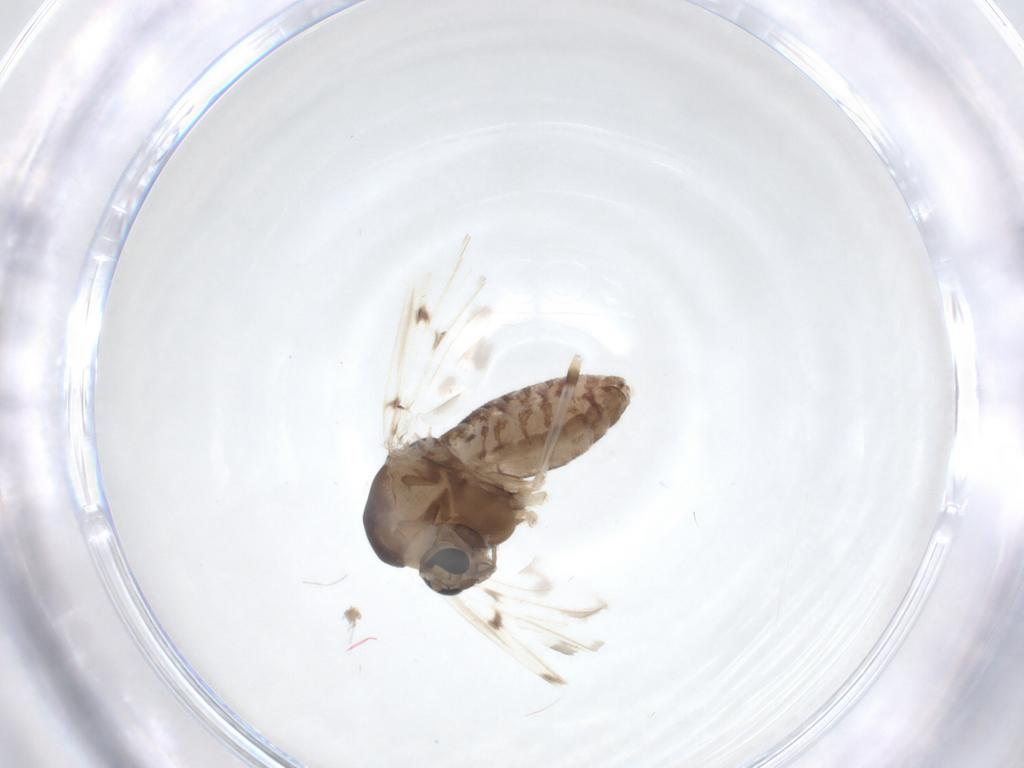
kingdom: Animalia
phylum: Arthropoda
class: Insecta
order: Diptera
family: Chironomidae
